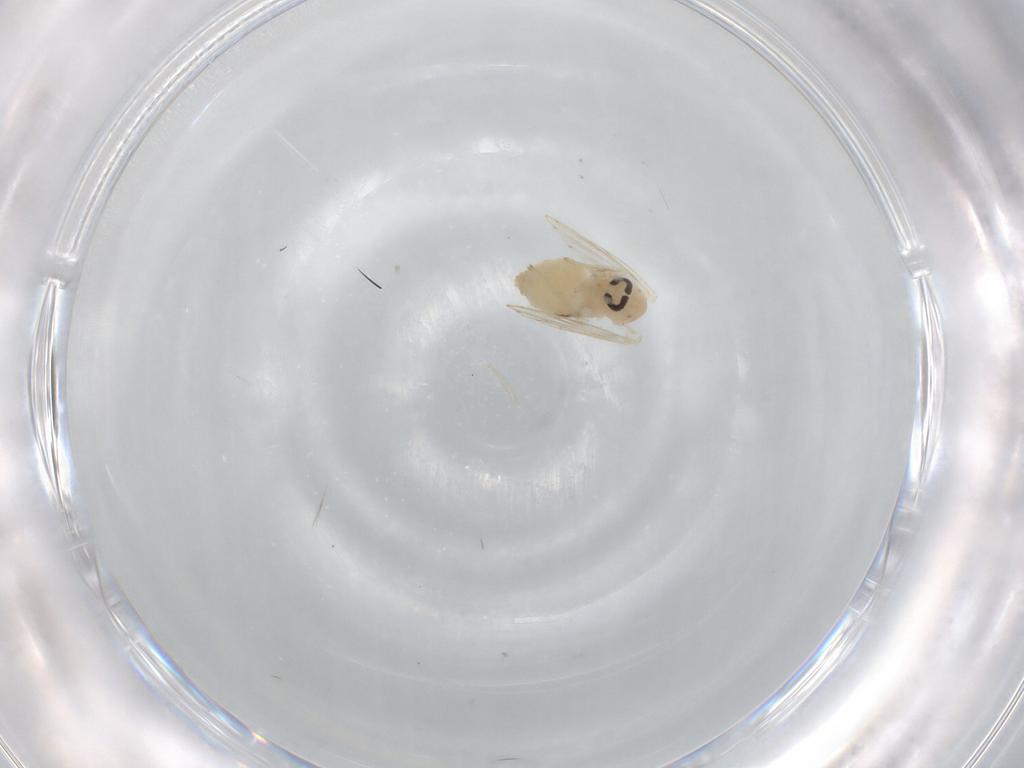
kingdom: Animalia
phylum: Arthropoda
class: Insecta
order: Diptera
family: Psychodidae
